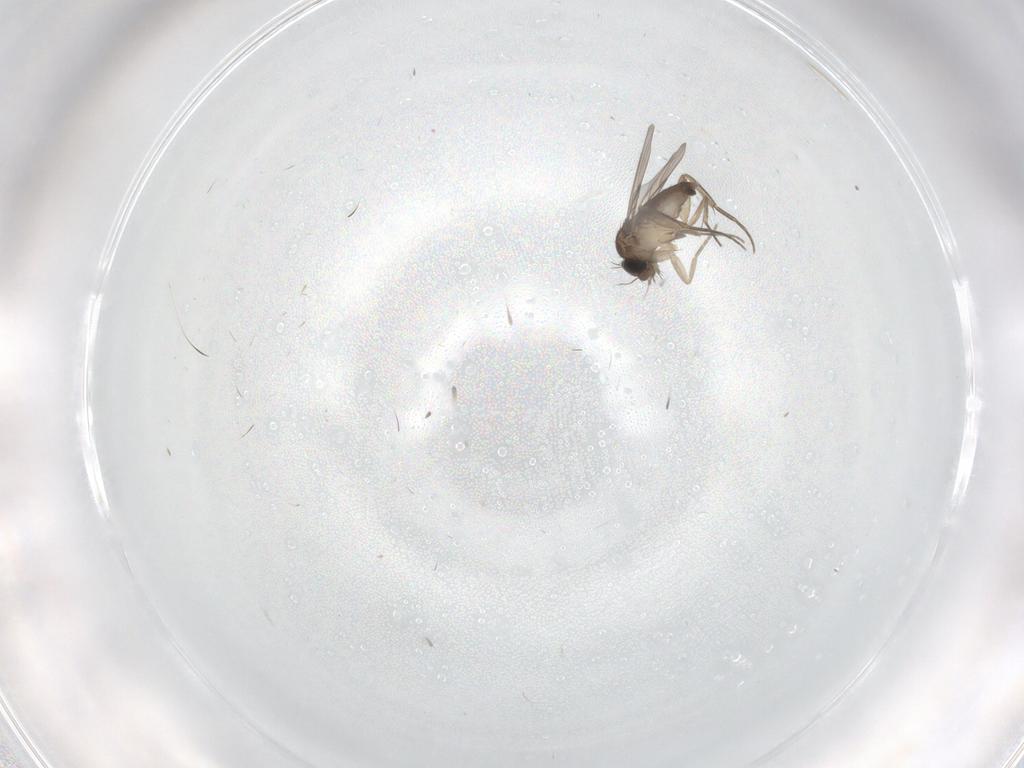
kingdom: Animalia
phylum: Arthropoda
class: Insecta
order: Diptera
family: Phoridae
